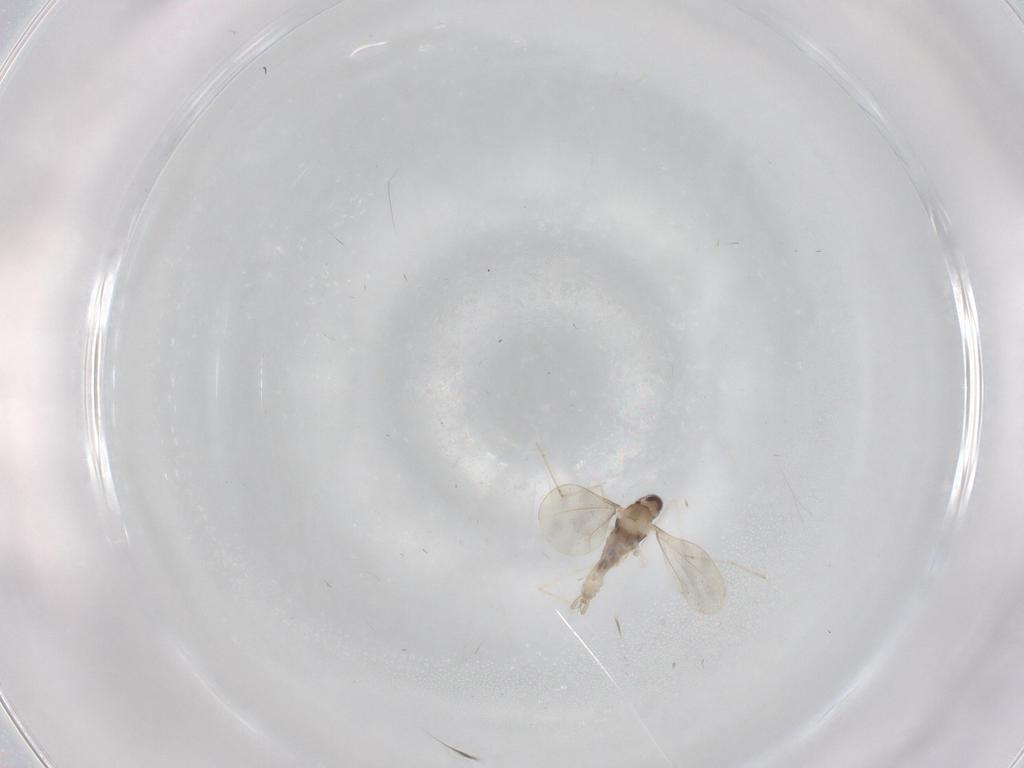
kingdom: Animalia
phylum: Arthropoda
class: Insecta
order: Diptera
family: Cecidomyiidae
